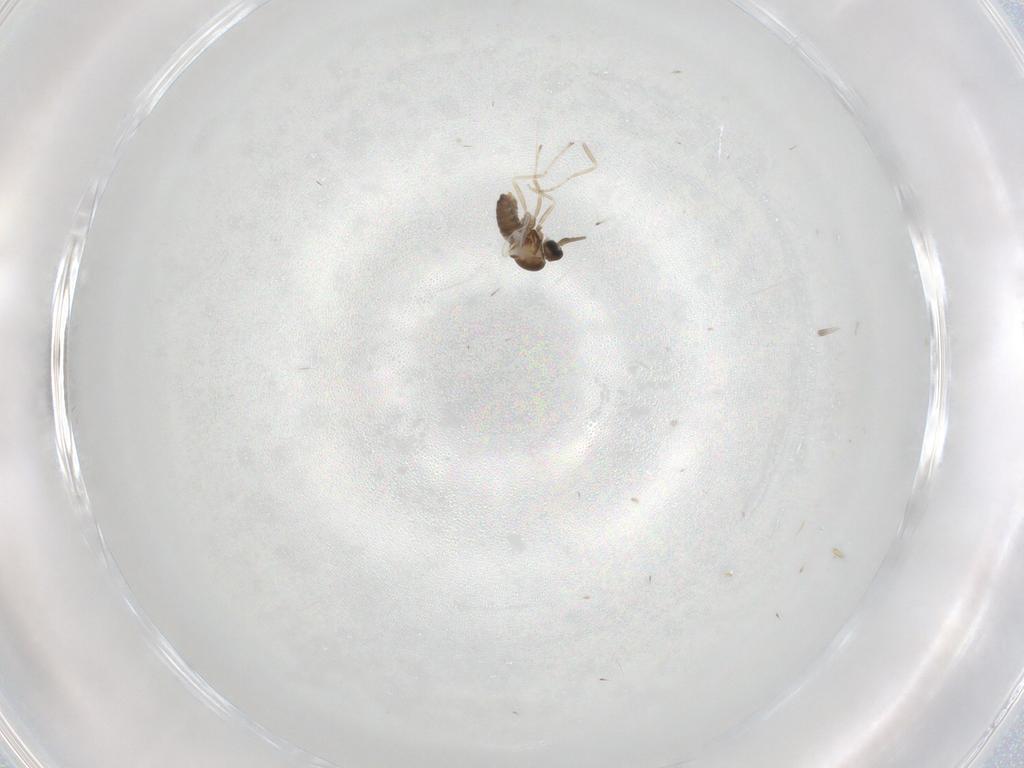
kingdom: Animalia
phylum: Arthropoda
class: Insecta
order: Diptera
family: Cecidomyiidae
